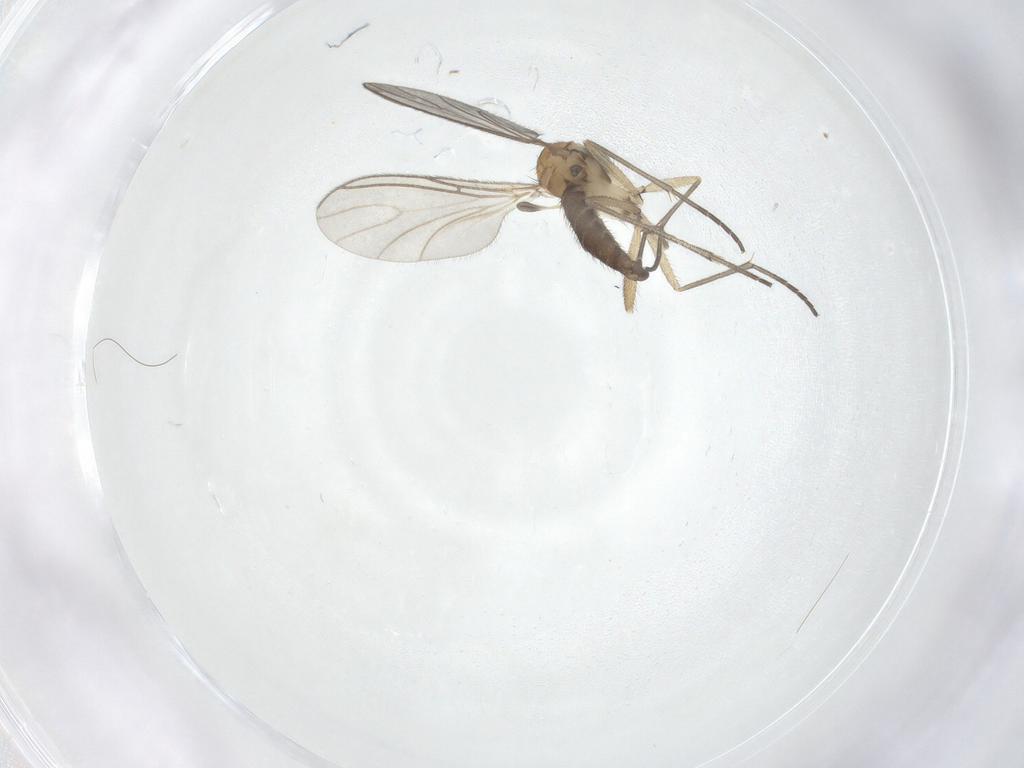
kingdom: Animalia
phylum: Arthropoda
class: Insecta
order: Diptera
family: Sciaridae
